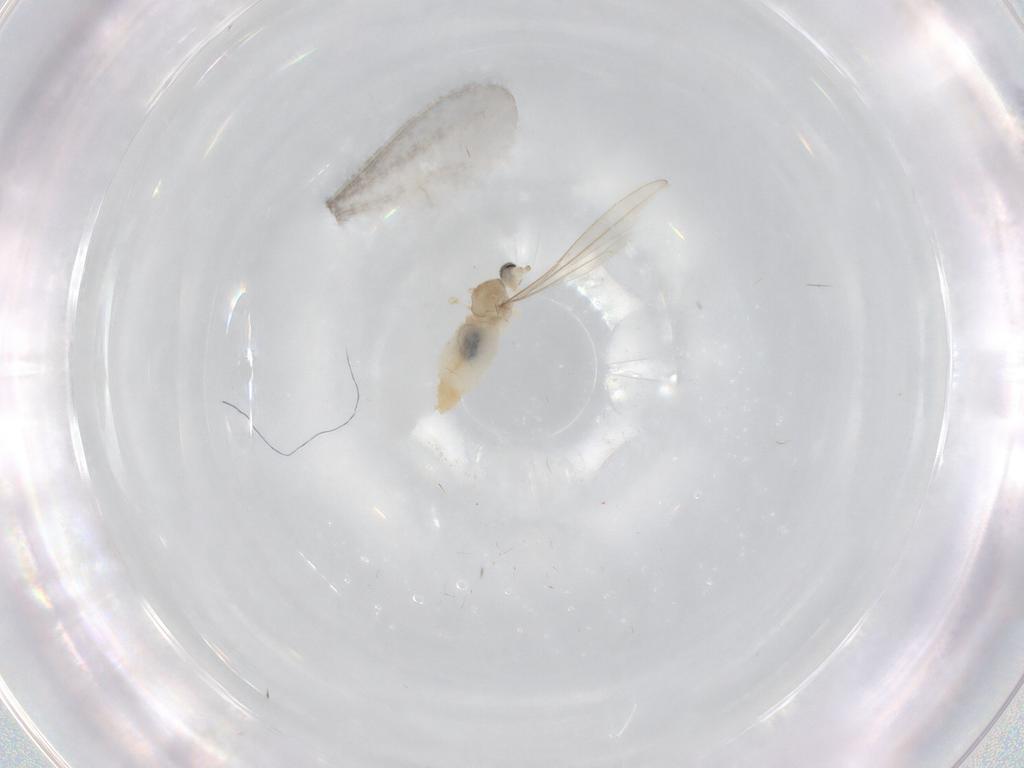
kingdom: Animalia
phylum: Arthropoda
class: Insecta
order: Diptera
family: Cecidomyiidae
